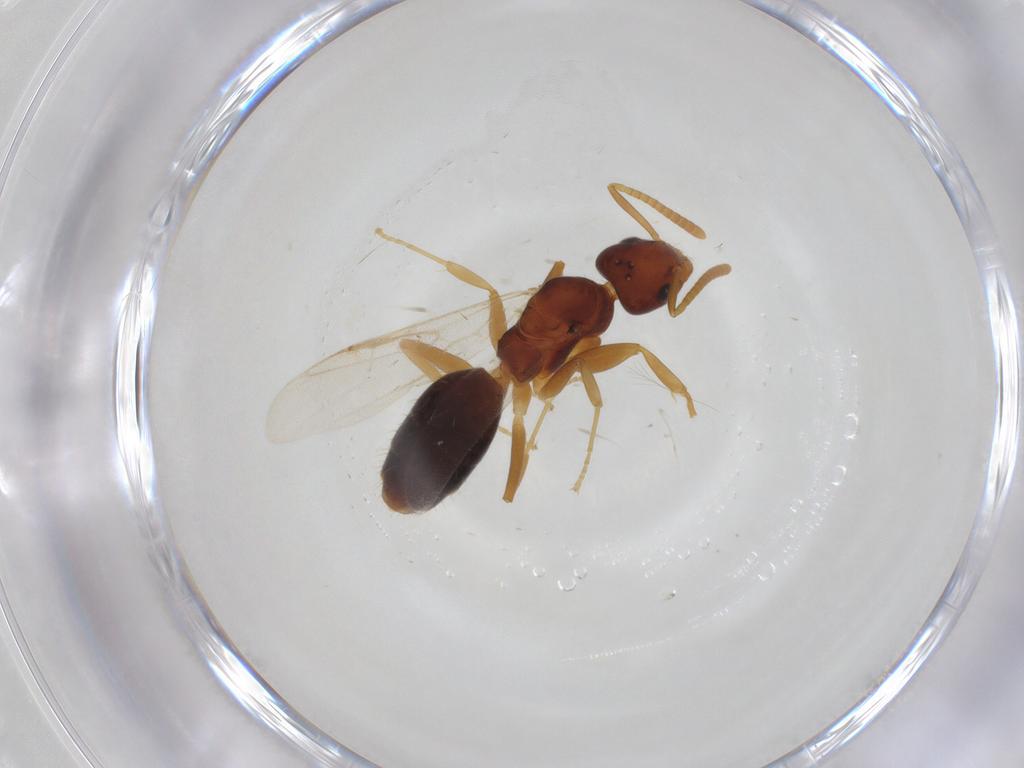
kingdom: Animalia
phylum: Arthropoda
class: Insecta
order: Hymenoptera
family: Formicidae
